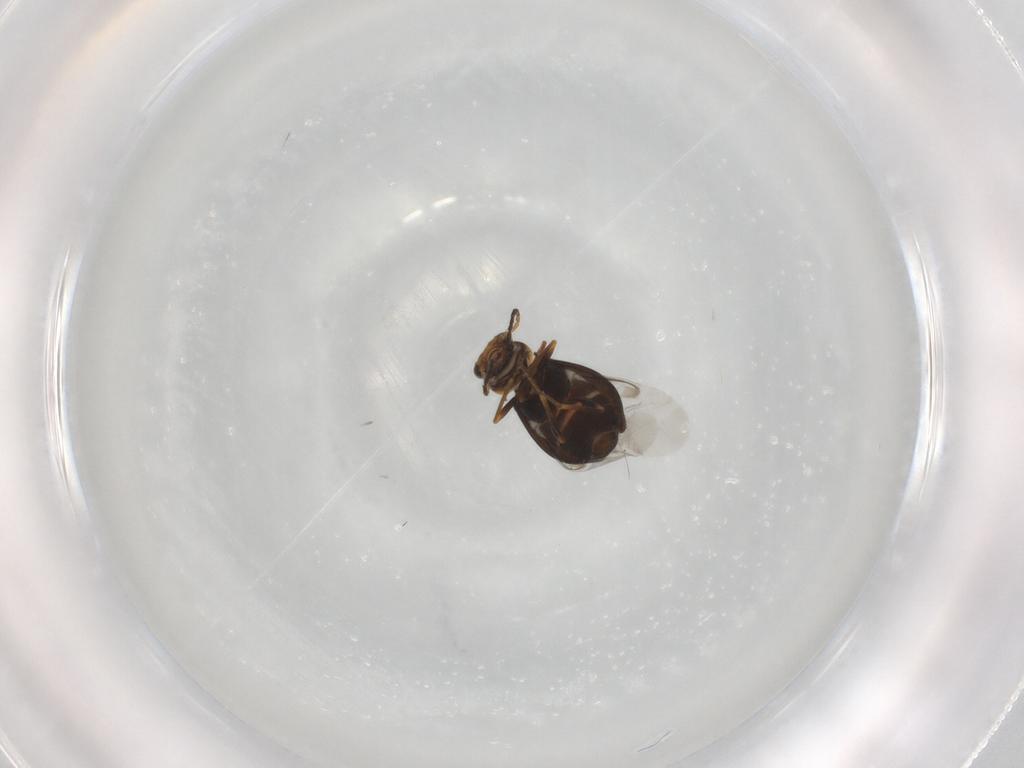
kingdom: Animalia
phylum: Arthropoda
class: Insecta
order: Coleoptera
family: Melyridae
